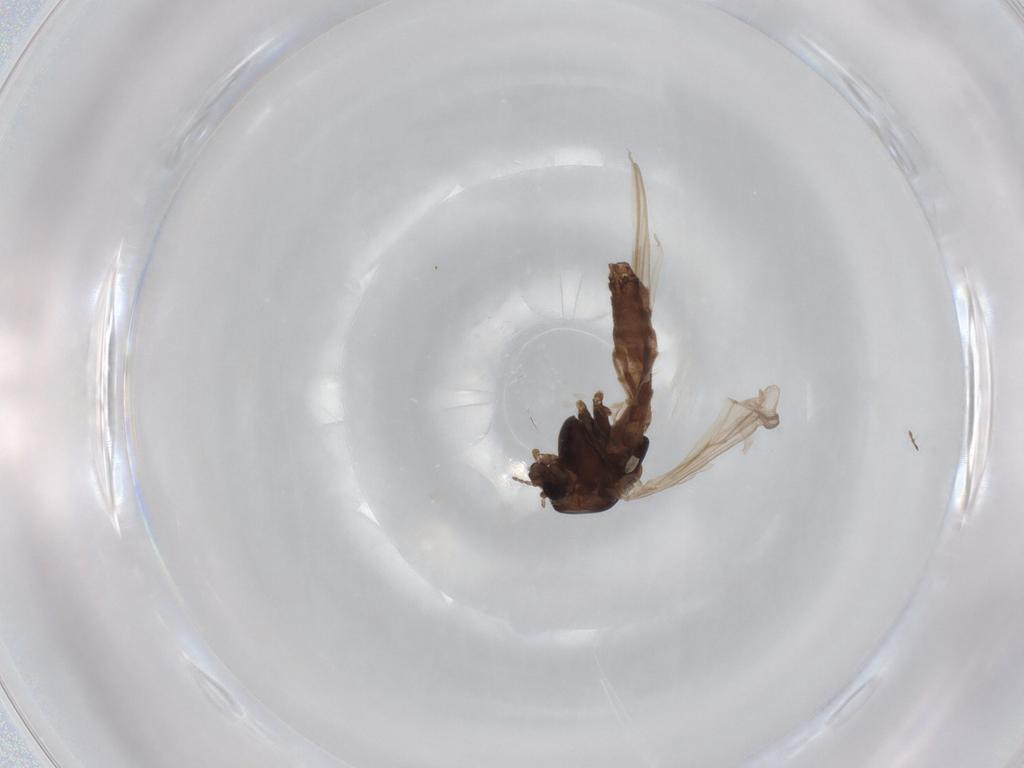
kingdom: Animalia
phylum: Arthropoda
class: Insecta
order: Diptera
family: Chironomidae
